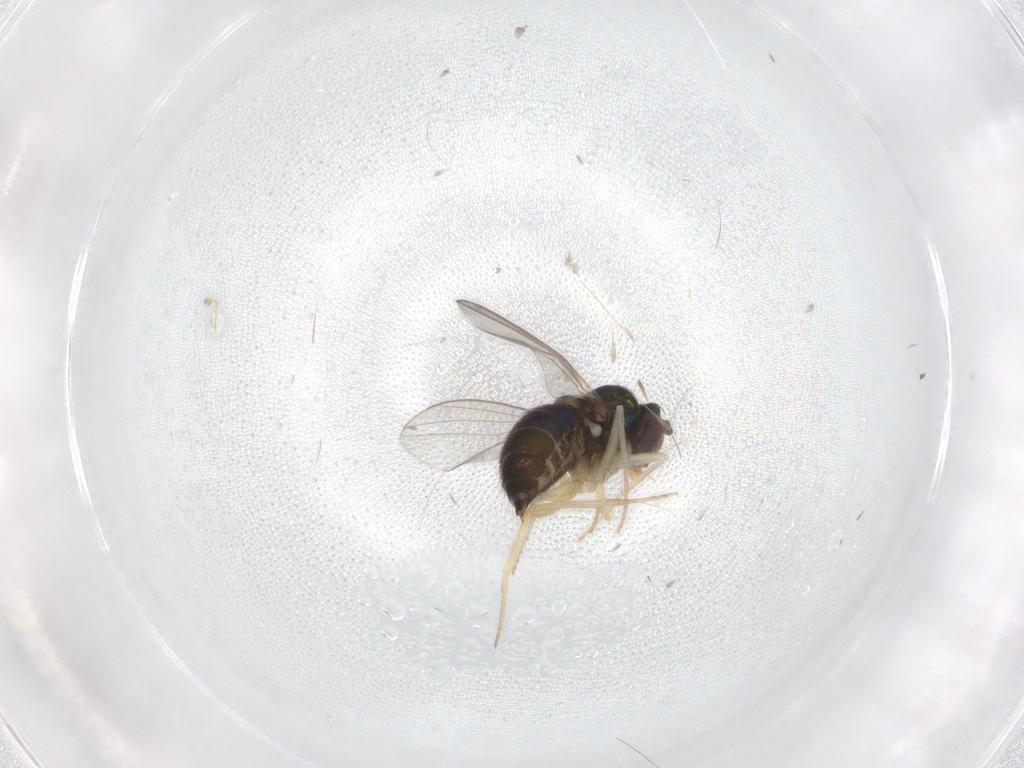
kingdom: Animalia
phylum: Arthropoda
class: Insecta
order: Diptera
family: Dolichopodidae
